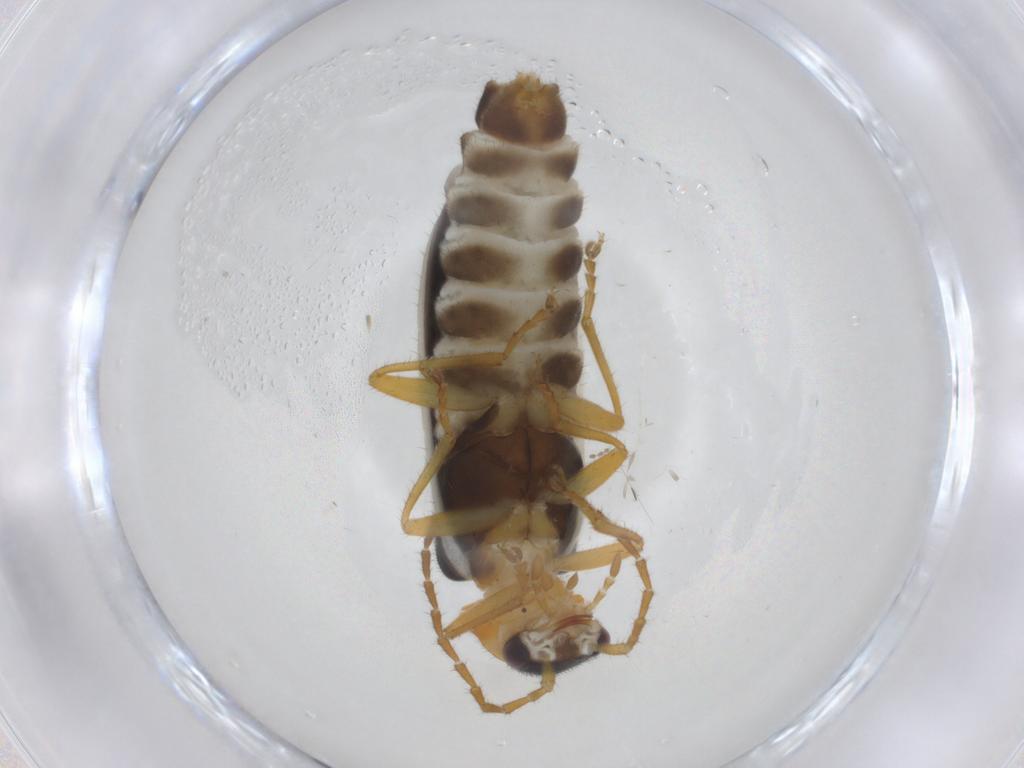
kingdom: Animalia
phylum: Arthropoda
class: Insecta
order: Coleoptera
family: Cantharidae
